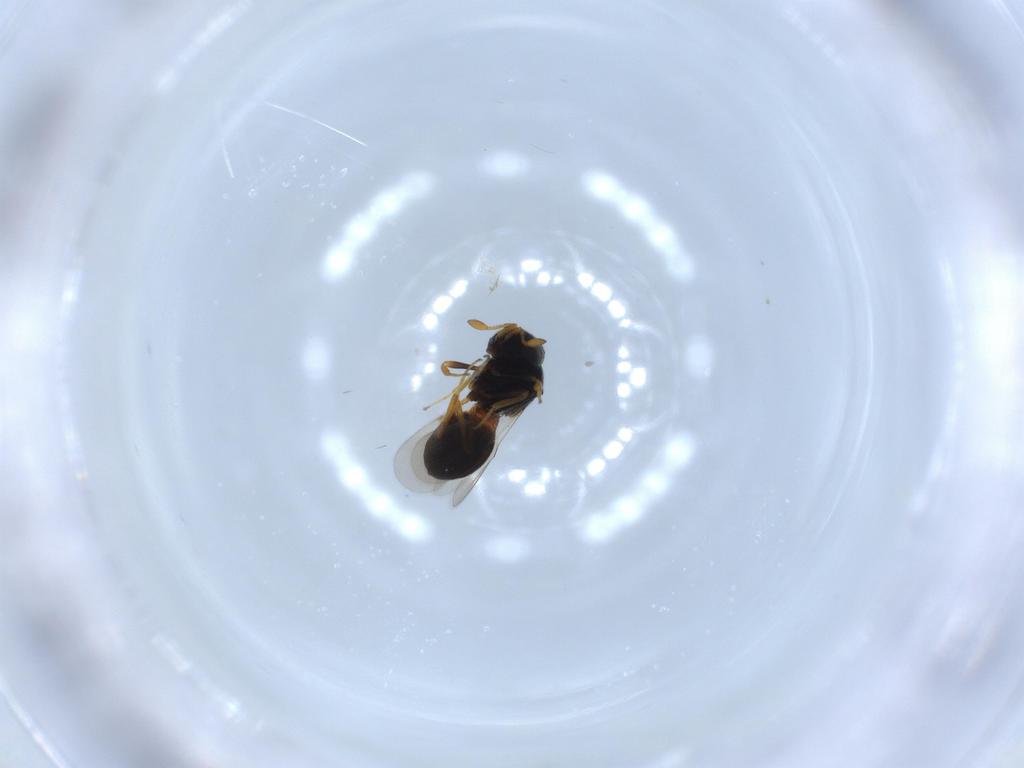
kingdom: Animalia
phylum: Arthropoda
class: Insecta
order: Hymenoptera
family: Scelionidae
